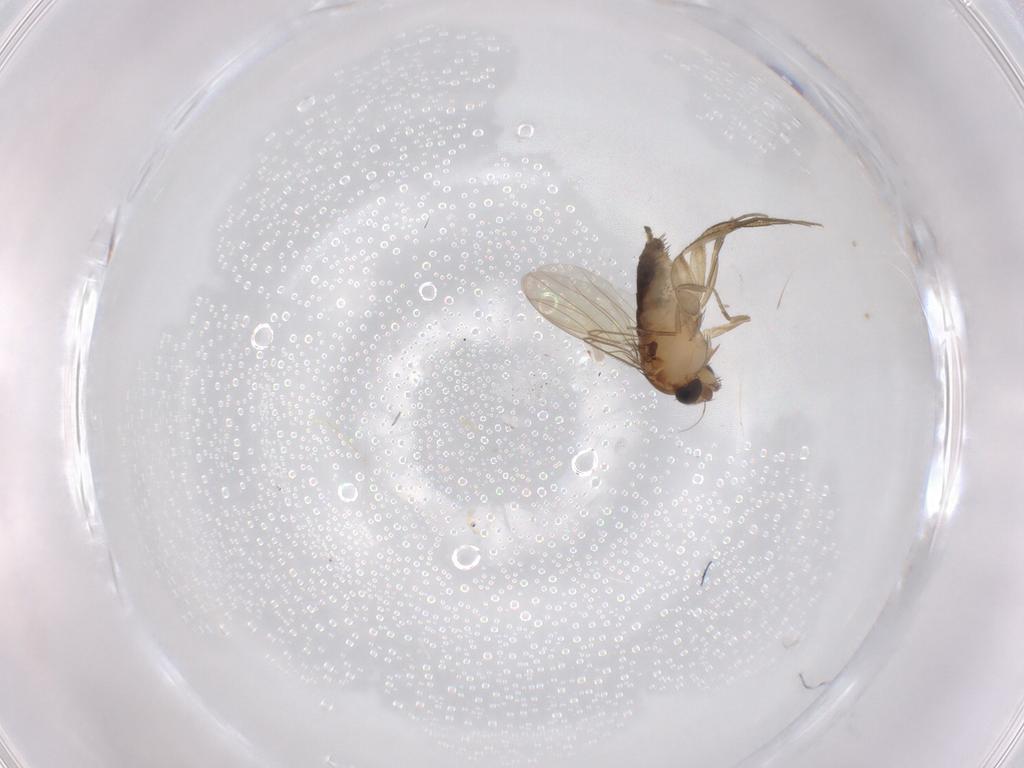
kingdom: Animalia
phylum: Arthropoda
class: Insecta
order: Diptera
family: Phoridae
